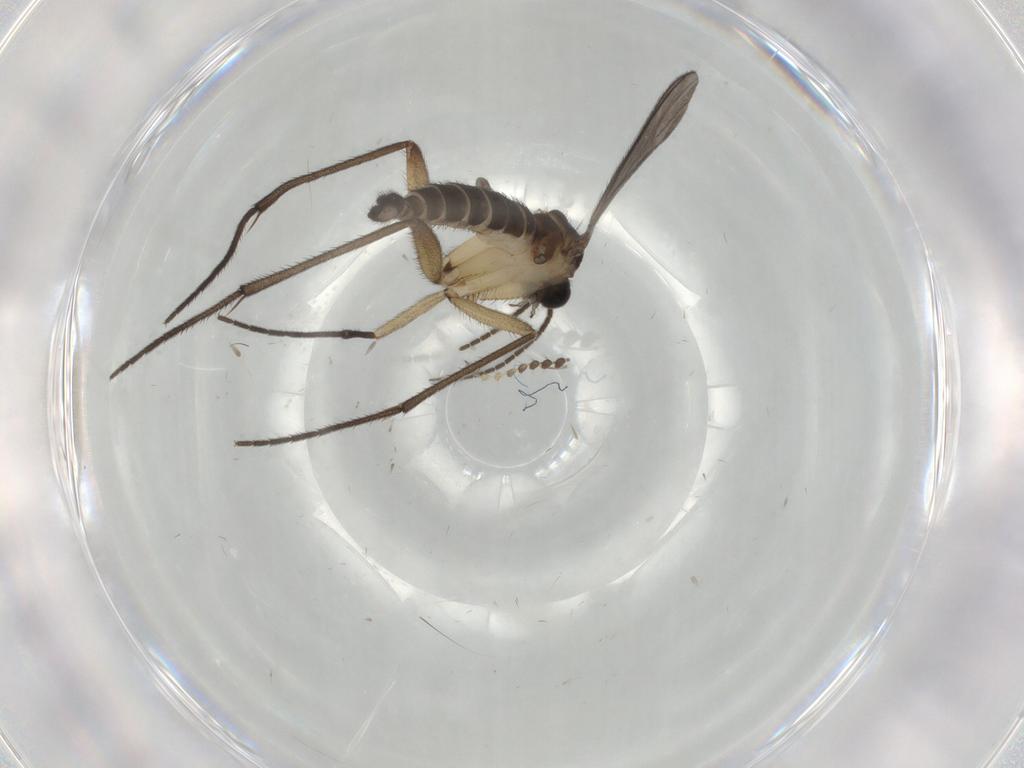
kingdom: Animalia
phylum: Arthropoda
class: Insecta
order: Diptera
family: Sciaridae
